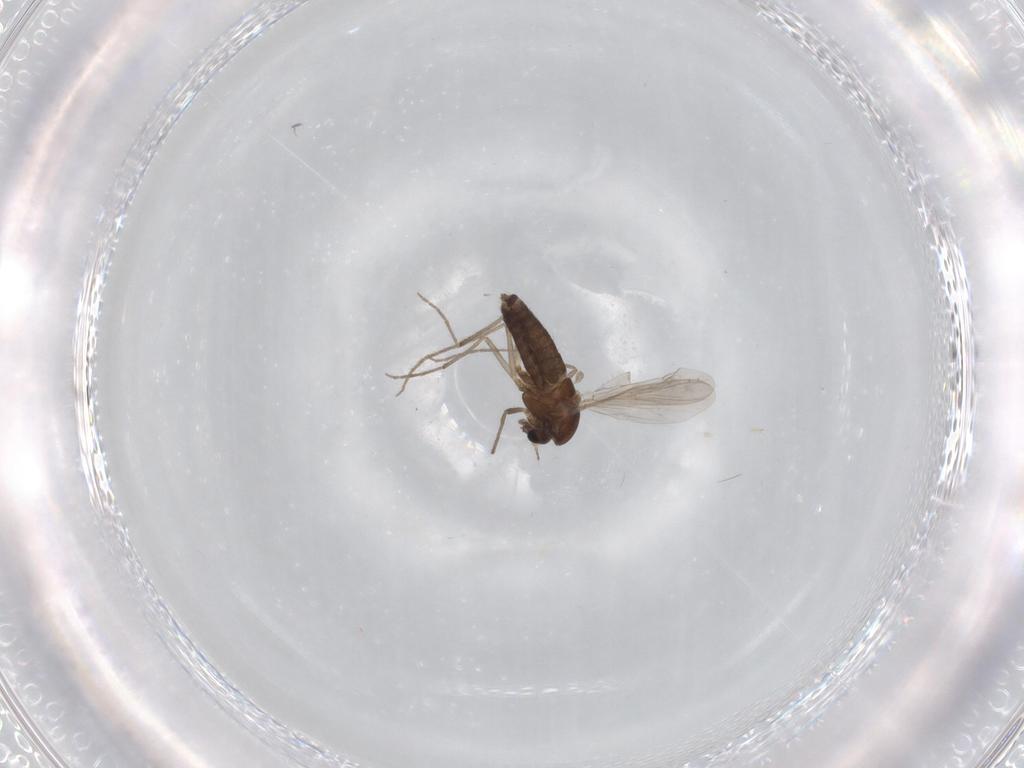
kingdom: Animalia
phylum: Arthropoda
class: Insecta
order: Diptera
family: Chironomidae
